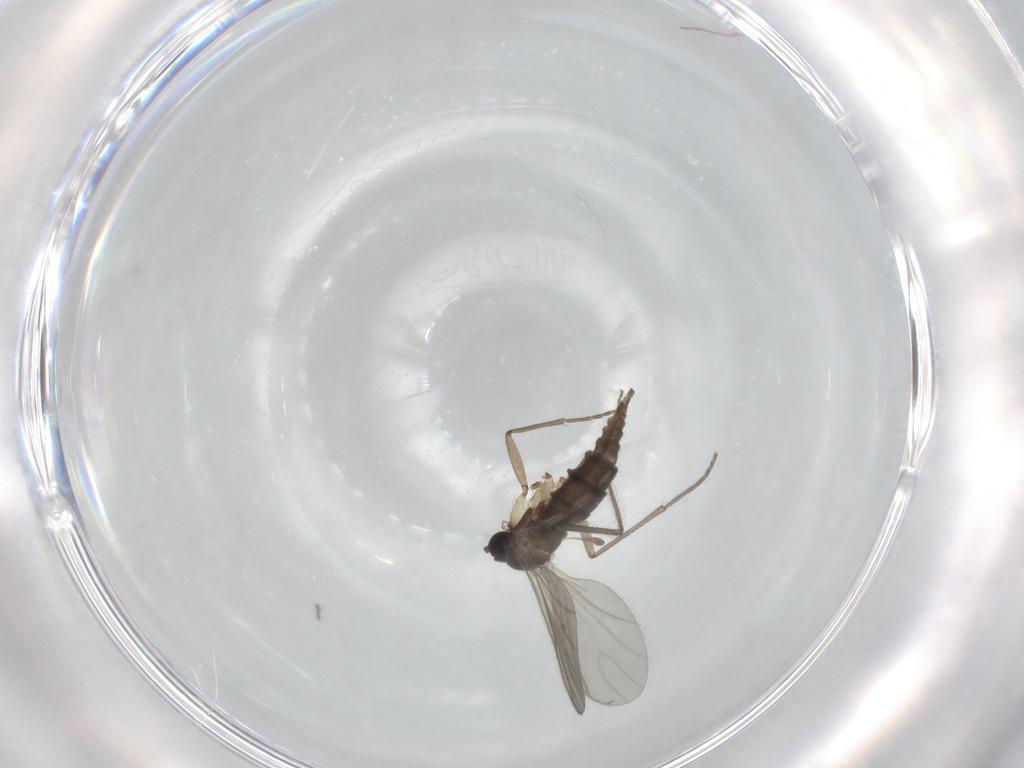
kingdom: Animalia
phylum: Arthropoda
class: Insecta
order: Diptera
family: Sciaridae
